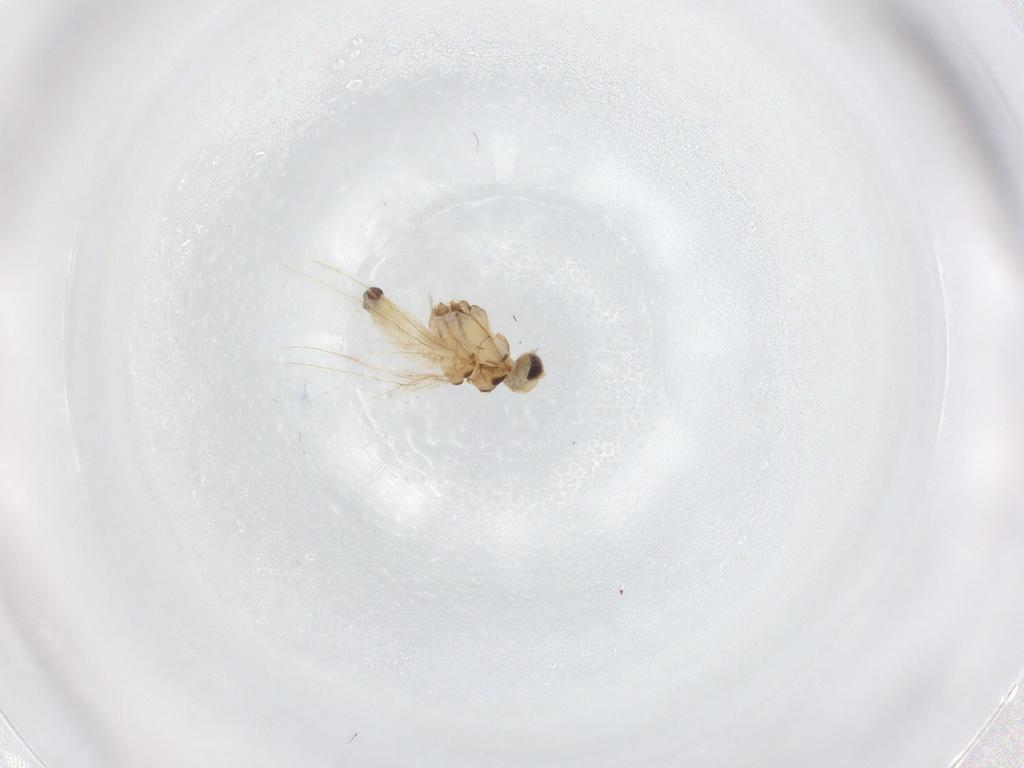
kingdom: Animalia
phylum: Arthropoda
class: Insecta
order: Neuroptera
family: Coniopterygidae
